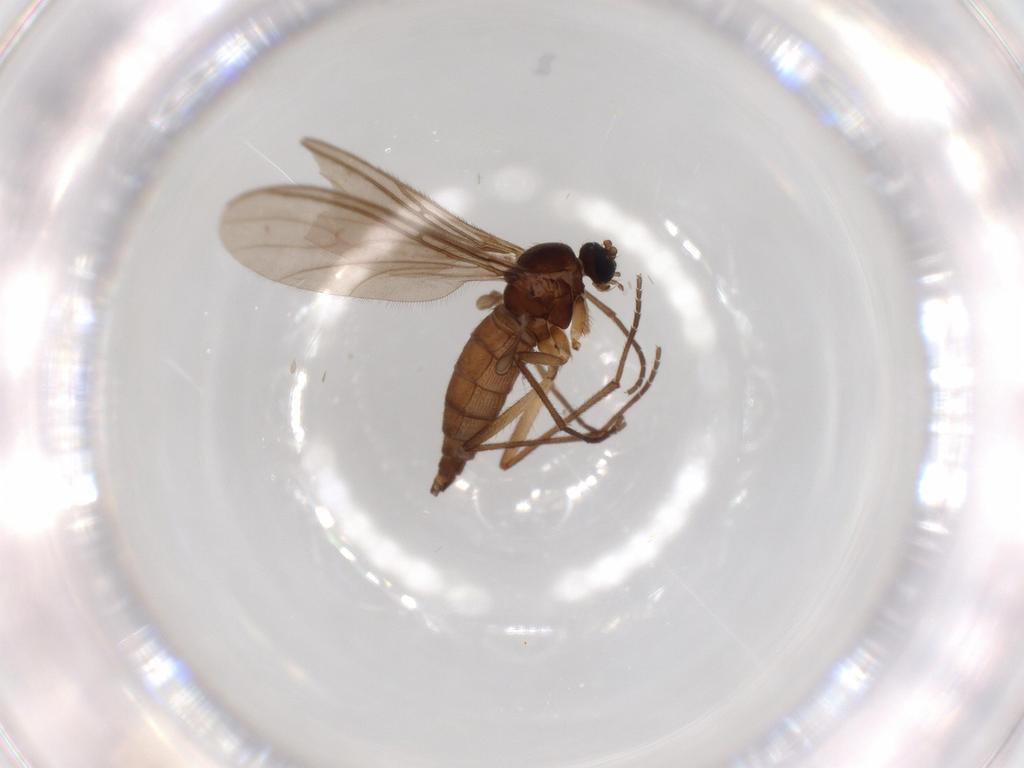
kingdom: Animalia
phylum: Arthropoda
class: Insecta
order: Diptera
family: Sciaridae
